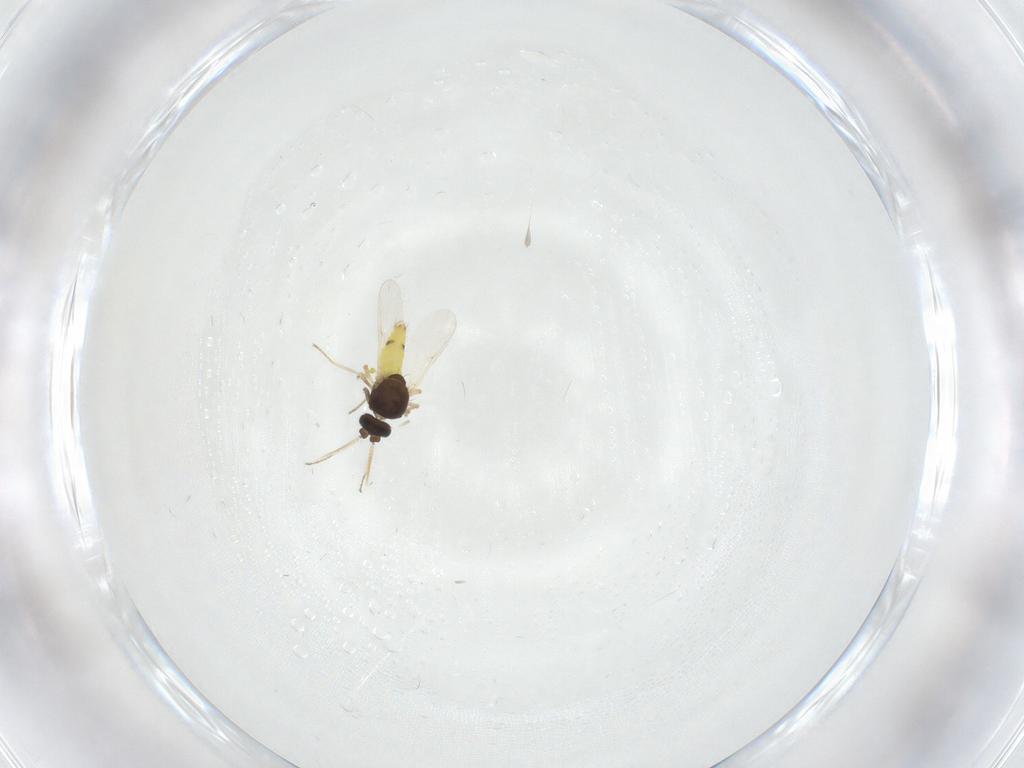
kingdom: Animalia
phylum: Arthropoda
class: Insecta
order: Diptera
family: Ceratopogonidae
